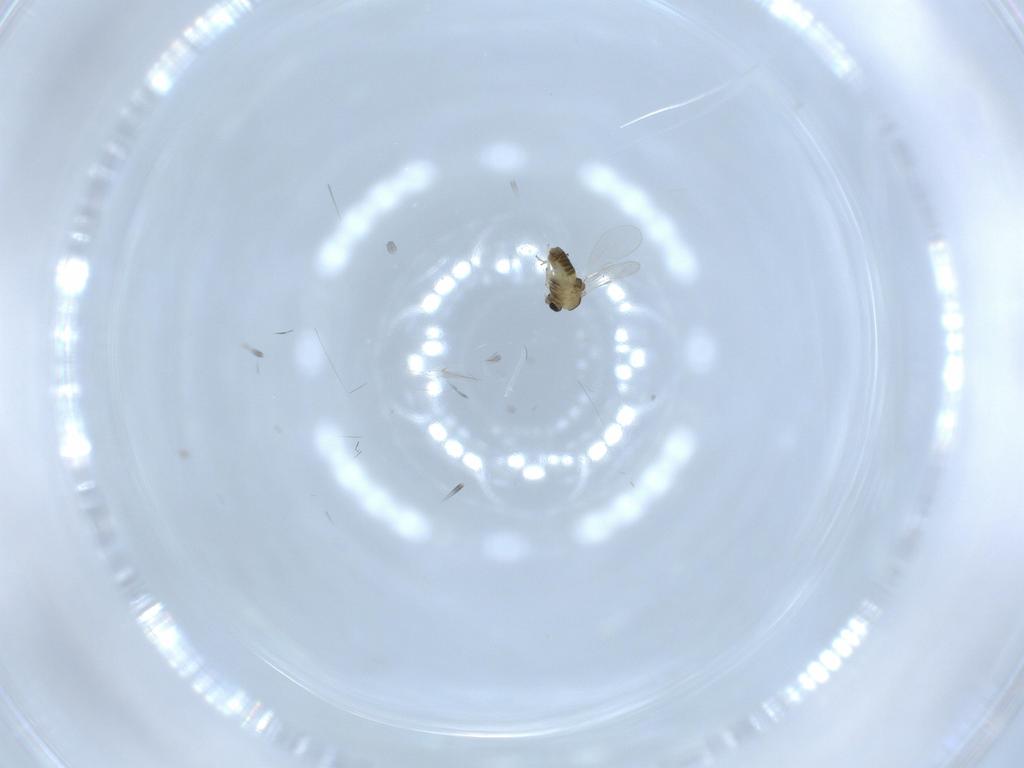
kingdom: Animalia
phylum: Arthropoda
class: Insecta
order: Diptera
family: Chironomidae
